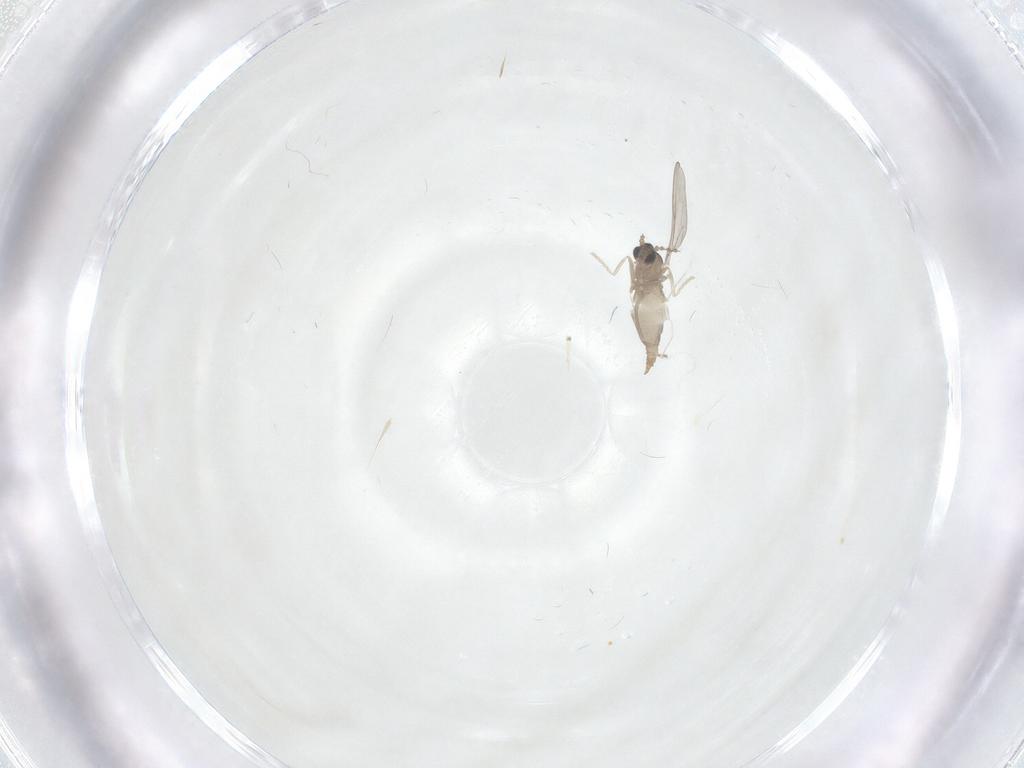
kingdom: Animalia
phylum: Arthropoda
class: Insecta
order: Diptera
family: Cecidomyiidae
